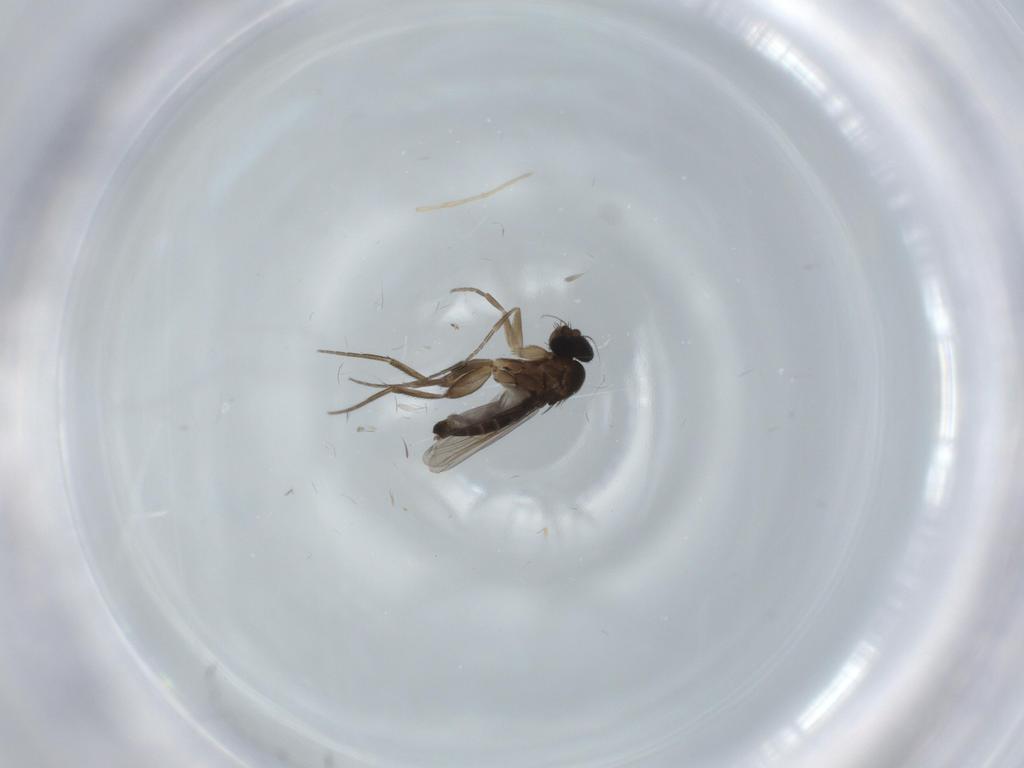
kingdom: Animalia
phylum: Arthropoda
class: Insecta
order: Diptera
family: Phoridae
